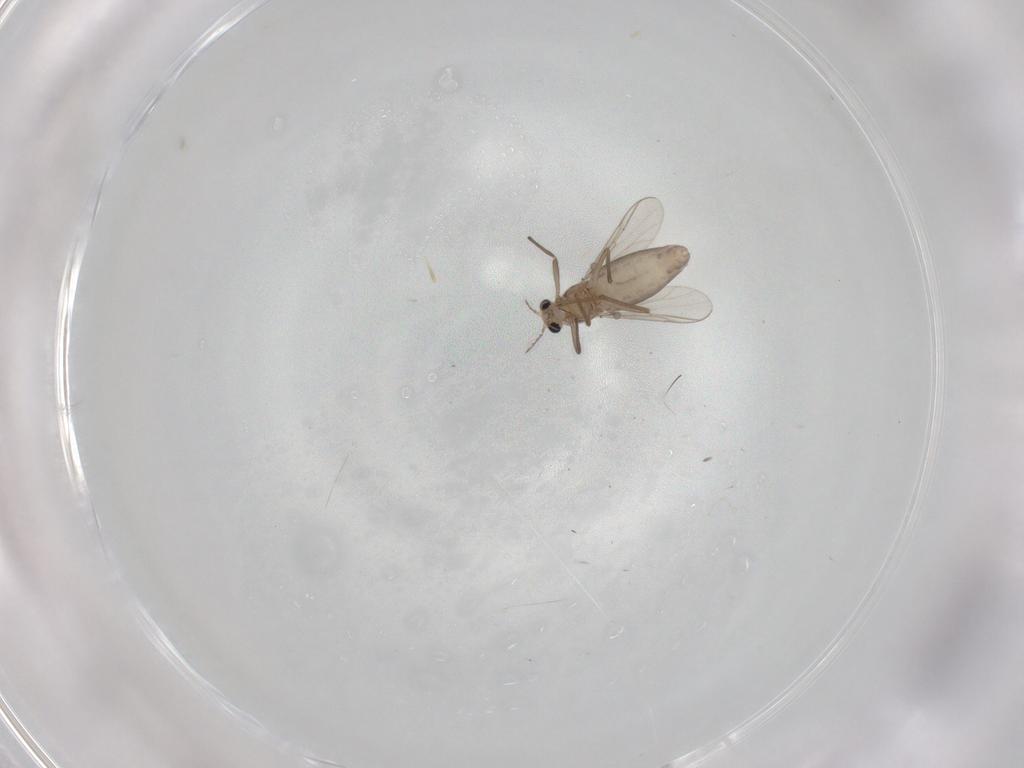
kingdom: Animalia
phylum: Arthropoda
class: Insecta
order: Diptera
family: Chironomidae
